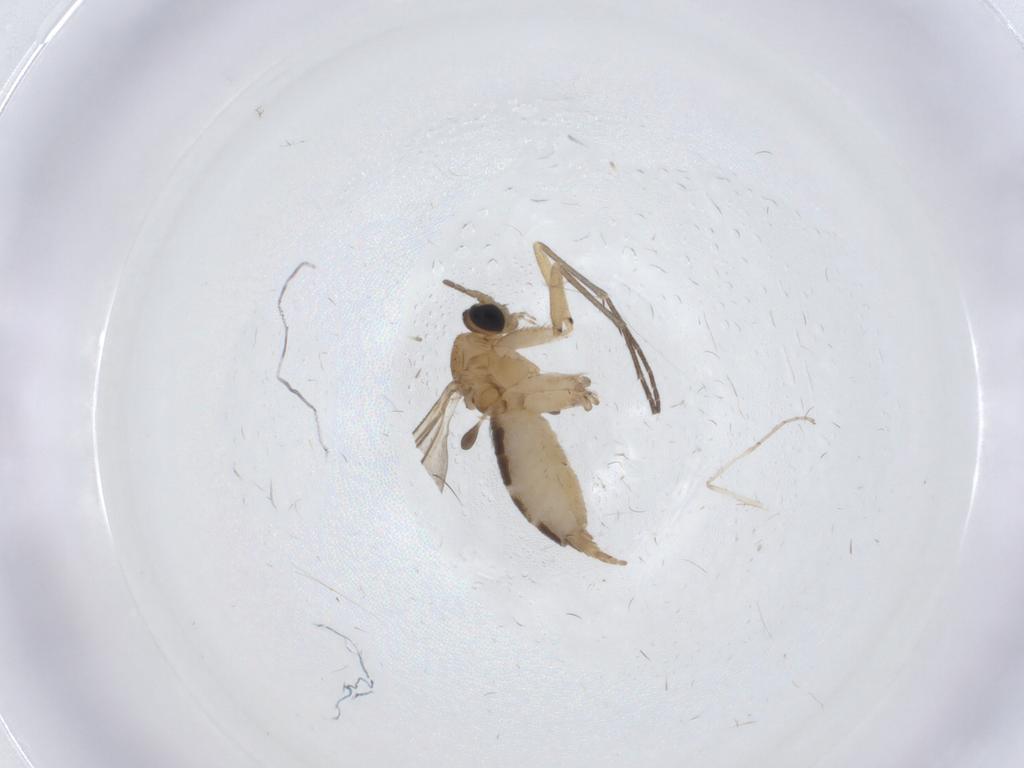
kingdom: Animalia
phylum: Arthropoda
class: Insecta
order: Diptera
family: Sciaridae
